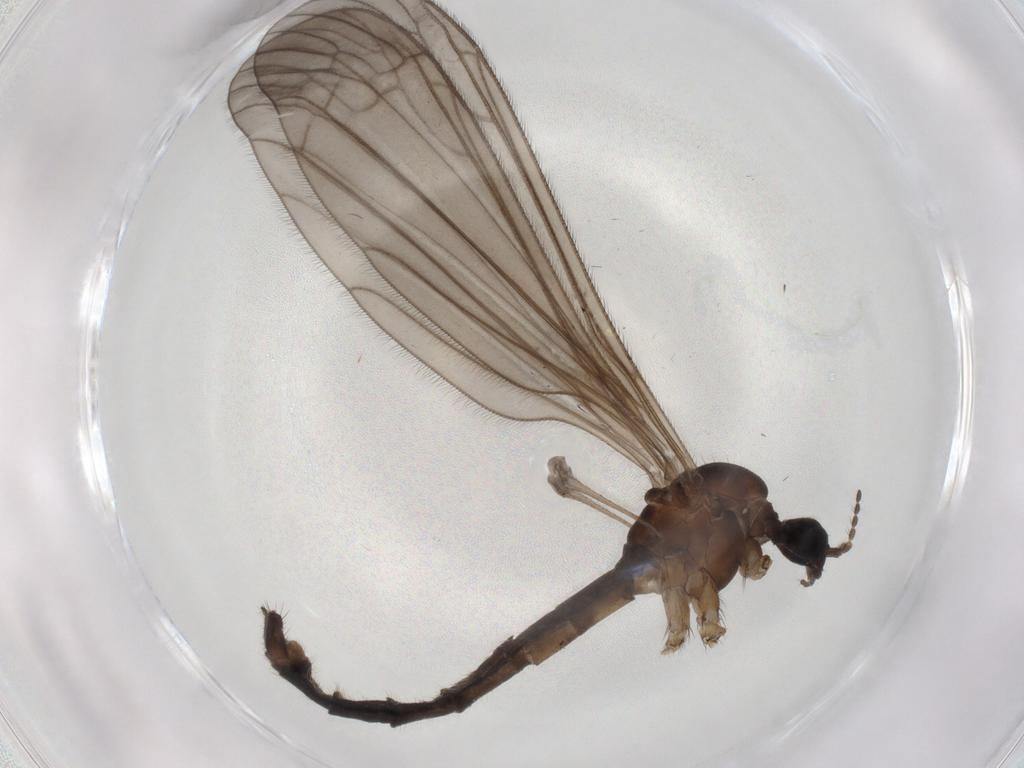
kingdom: Animalia
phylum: Arthropoda
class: Insecta
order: Diptera
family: Limoniidae
